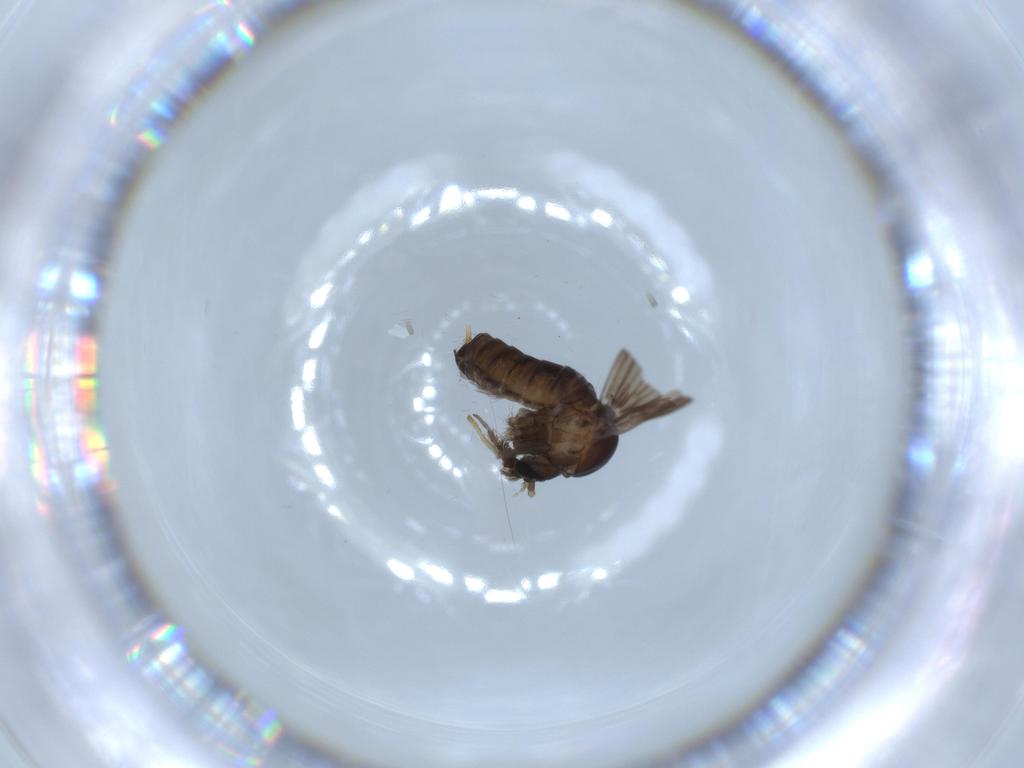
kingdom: Animalia
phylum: Arthropoda
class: Insecta
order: Diptera
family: Psychodidae
